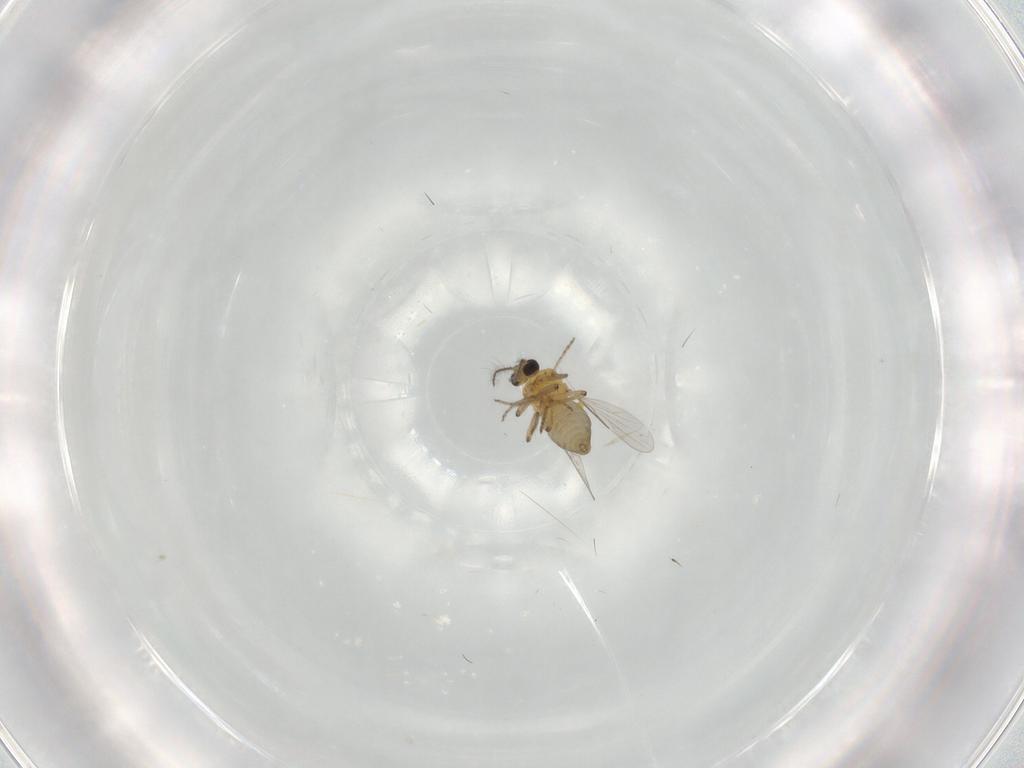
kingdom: Animalia
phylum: Arthropoda
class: Insecta
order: Diptera
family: Ceratopogonidae
